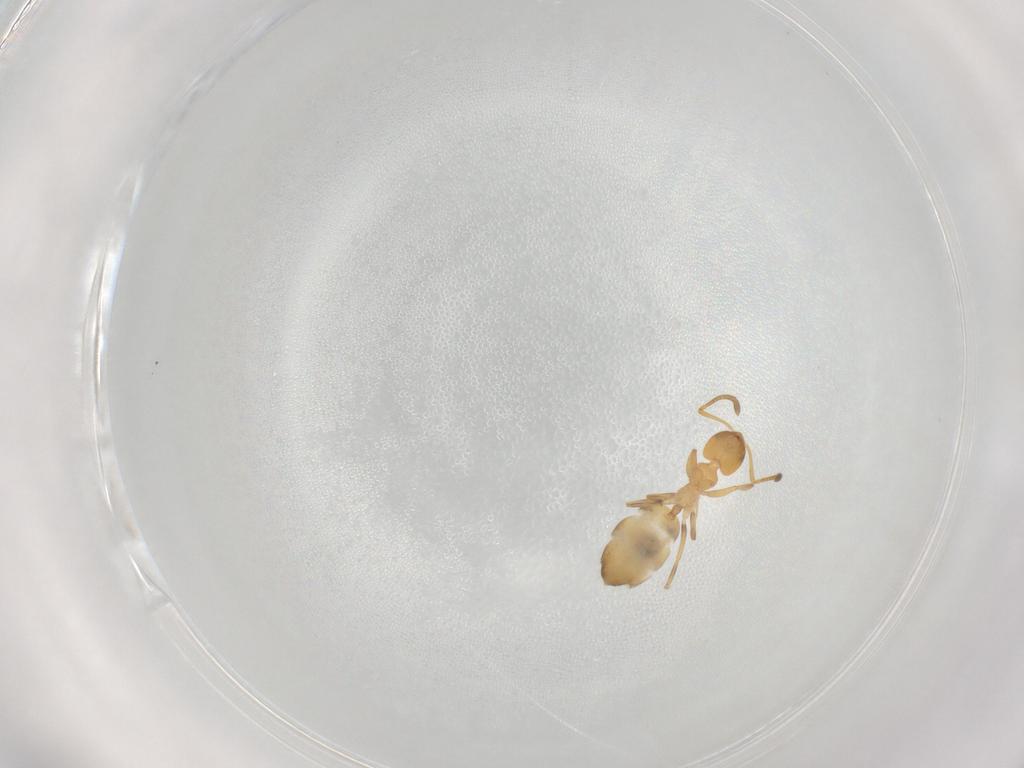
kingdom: Animalia
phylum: Arthropoda
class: Insecta
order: Hymenoptera
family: Formicidae
